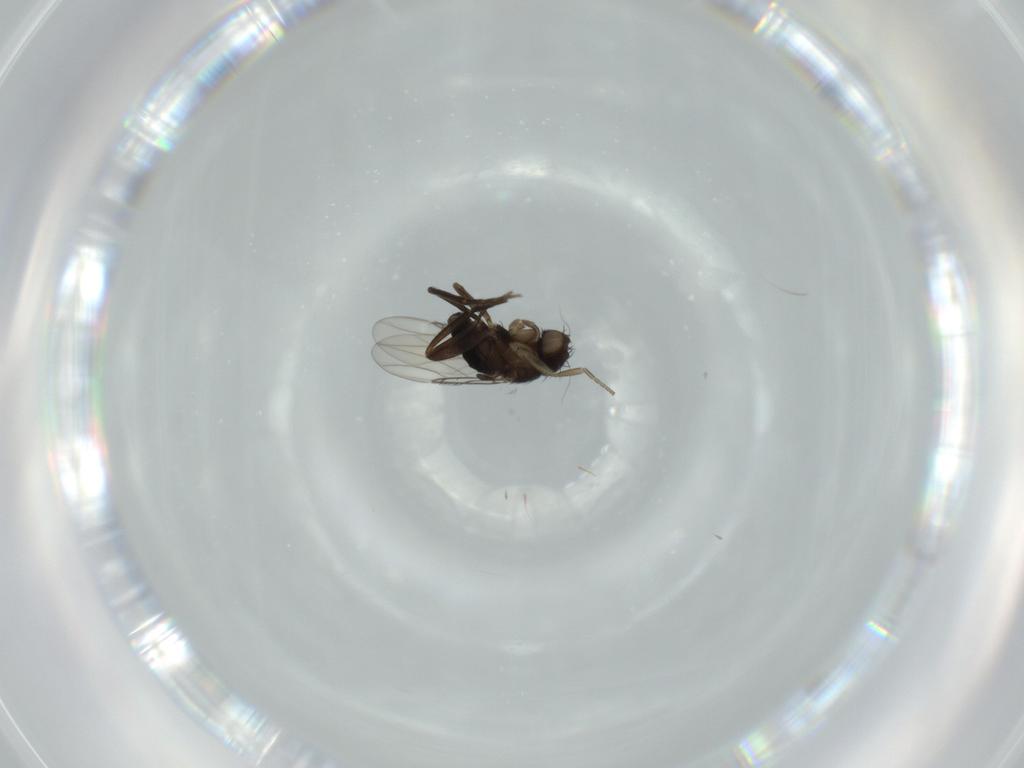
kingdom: Animalia
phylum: Arthropoda
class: Insecta
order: Diptera
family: Phoridae
